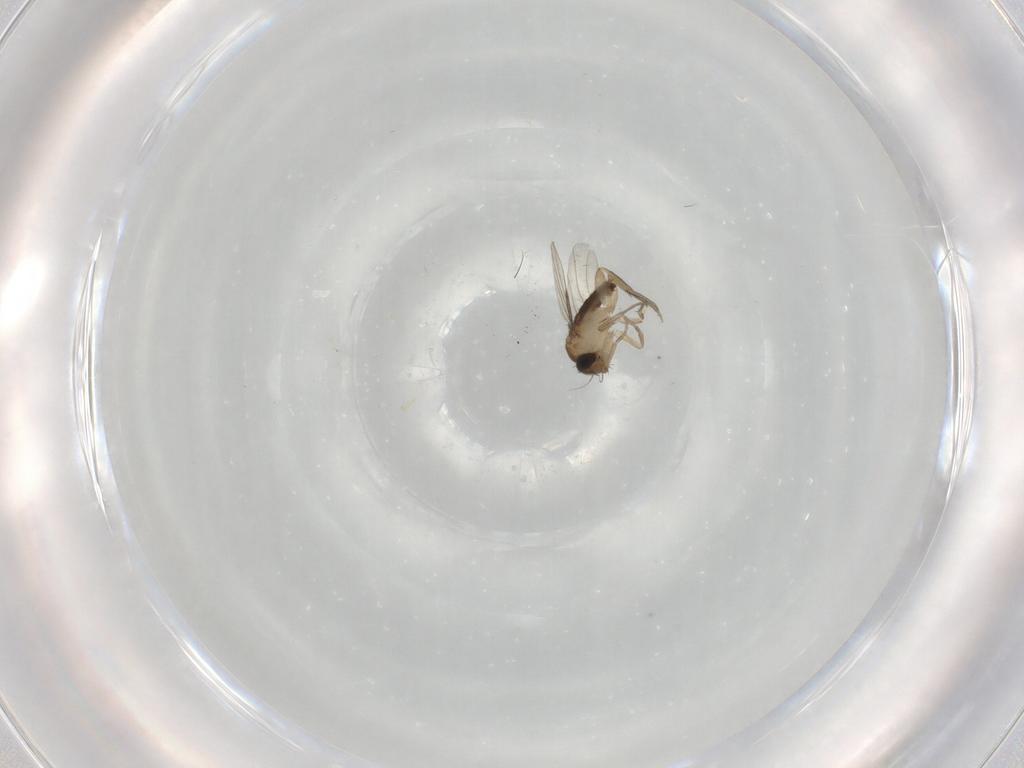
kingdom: Animalia
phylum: Arthropoda
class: Insecta
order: Diptera
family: Phoridae
